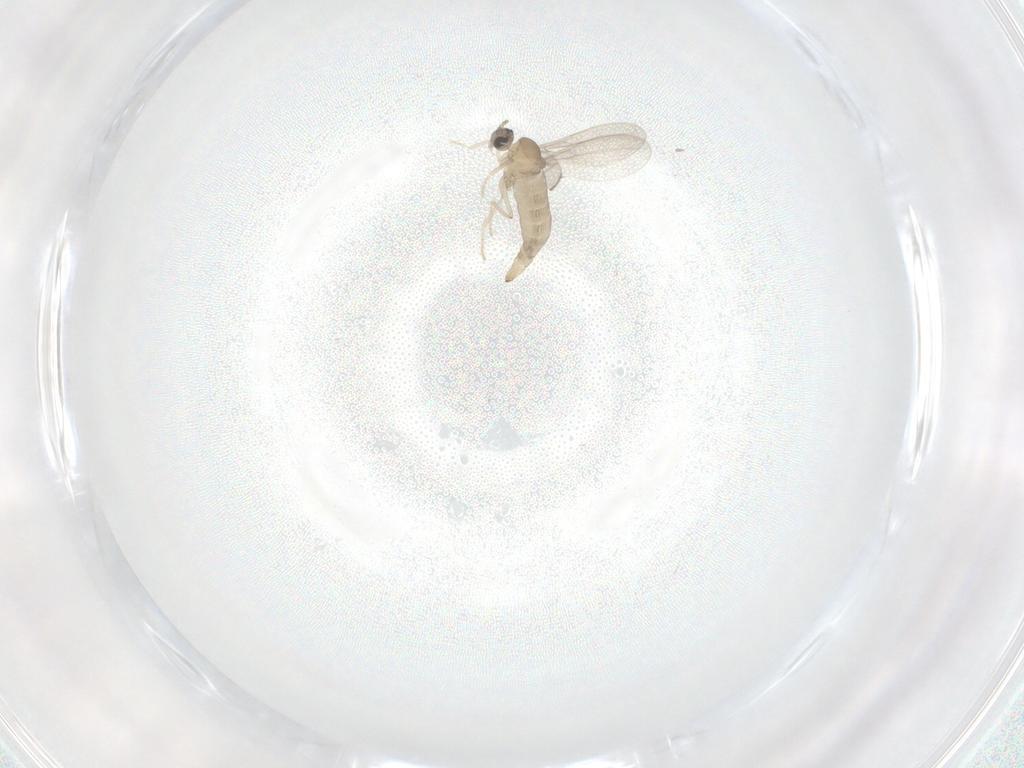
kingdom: Animalia
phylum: Arthropoda
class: Insecta
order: Diptera
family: Cecidomyiidae
